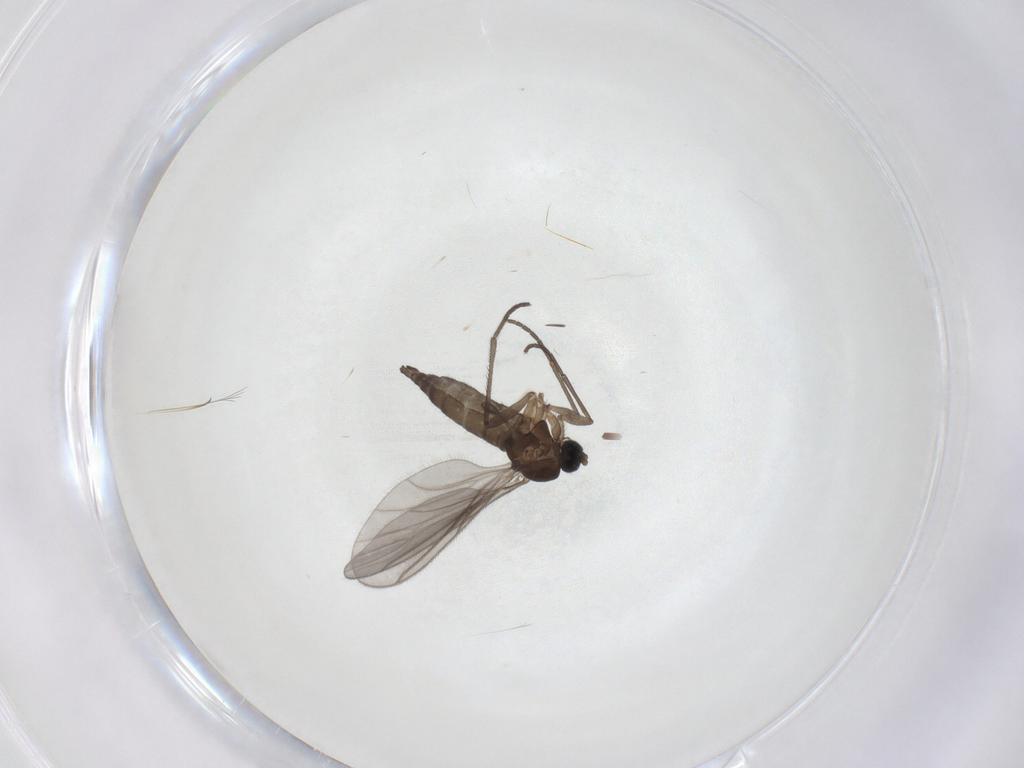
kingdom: Animalia
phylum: Arthropoda
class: Insecta
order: Diptera
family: Sciaridae
